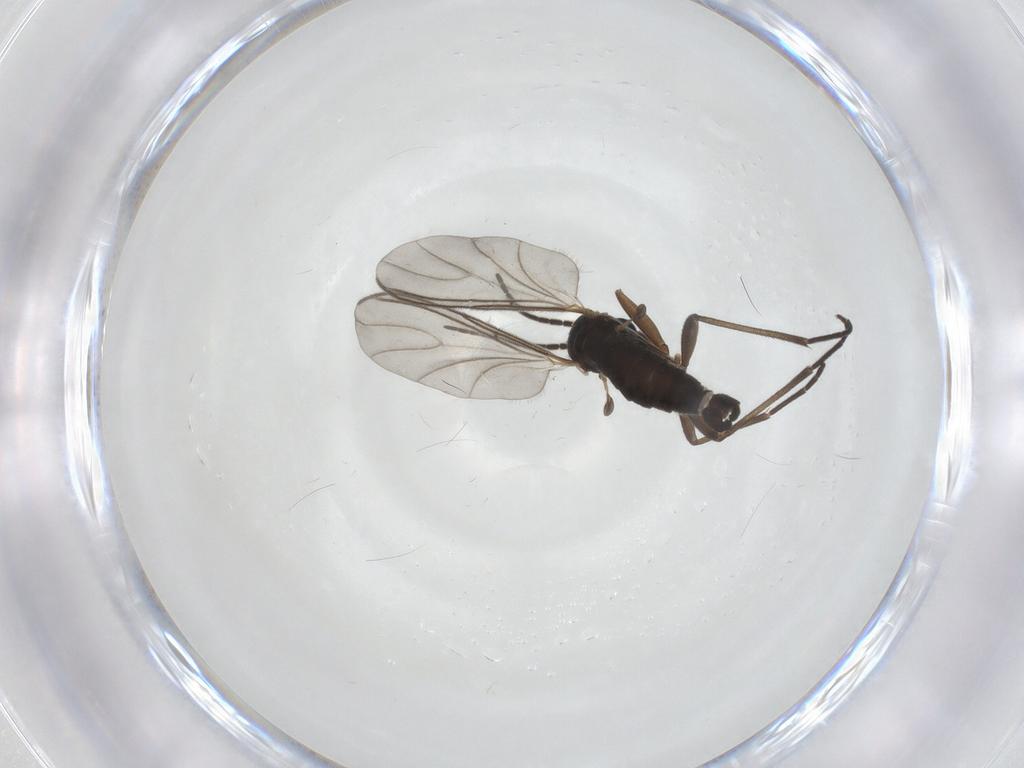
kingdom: Animalia
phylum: Arthropoda
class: Insecta
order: Diptera
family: Sciaridae
